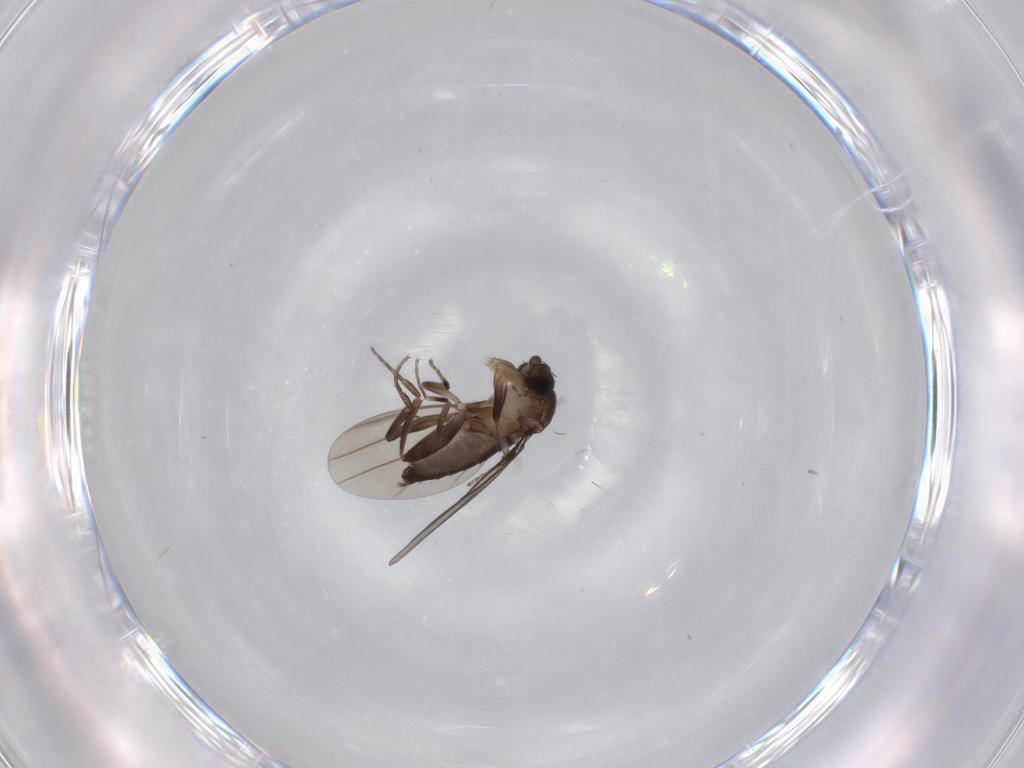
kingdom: Animalia
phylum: Arthropoda
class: Insecta
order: Diptera
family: Phoridae
